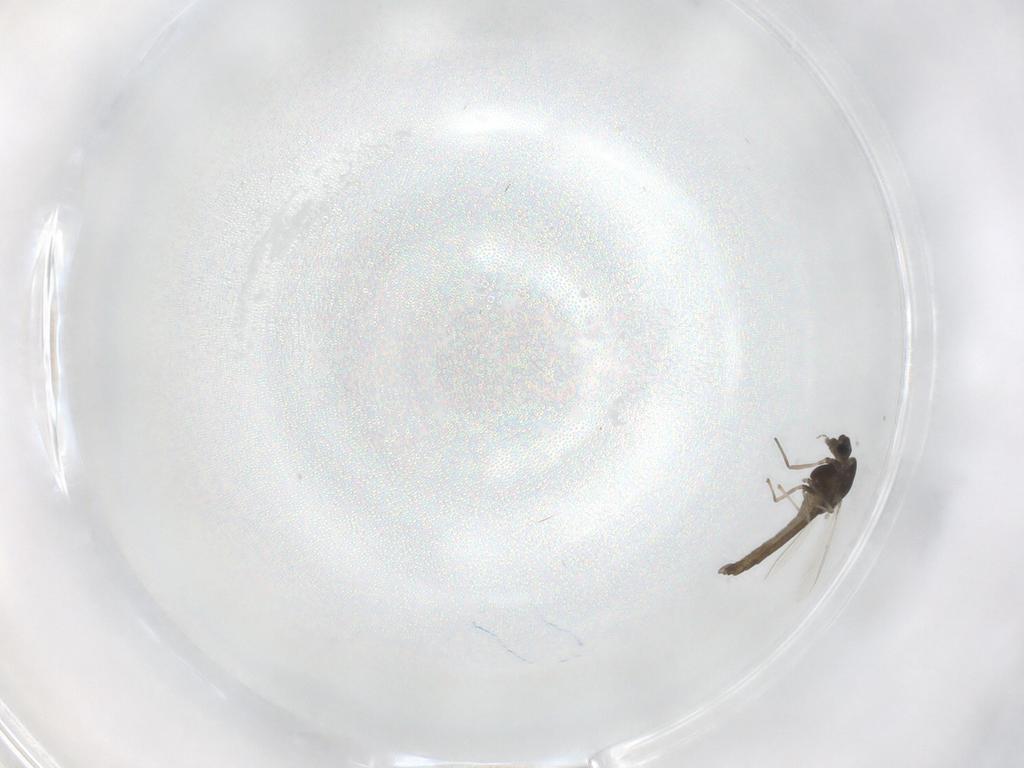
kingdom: Animalia
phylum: Arthropoda
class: Insecta
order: Diptera
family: Chironomidae
